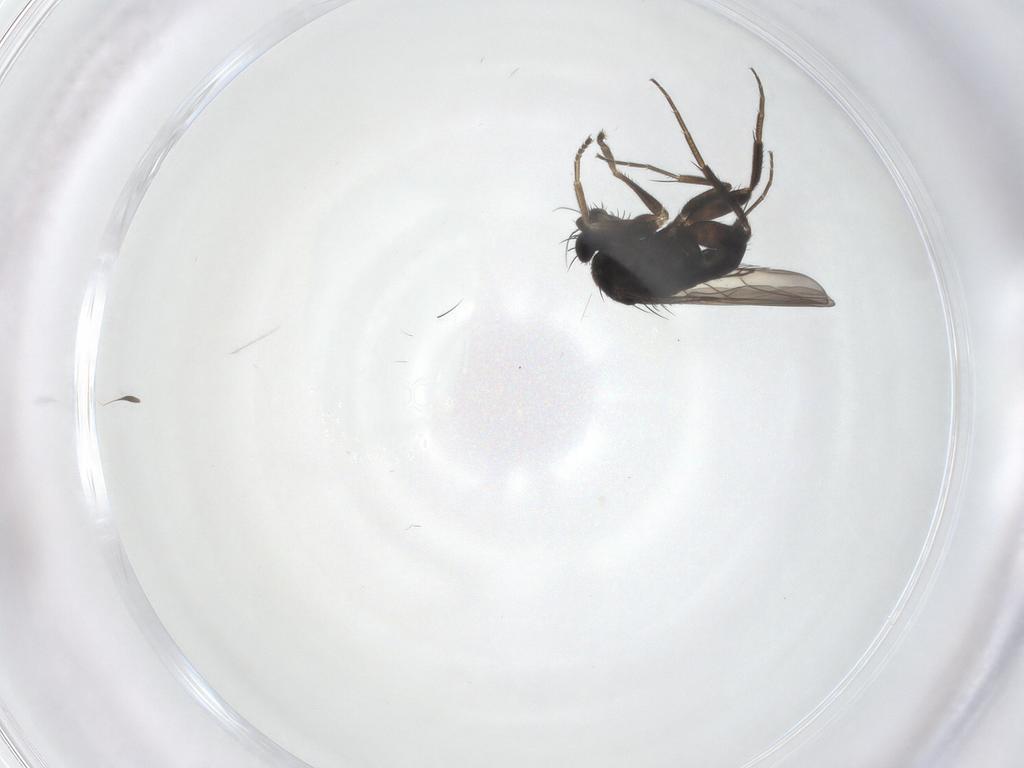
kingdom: Animalia
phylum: Arthropoda
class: Insecta
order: Diptera
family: Phoridae
